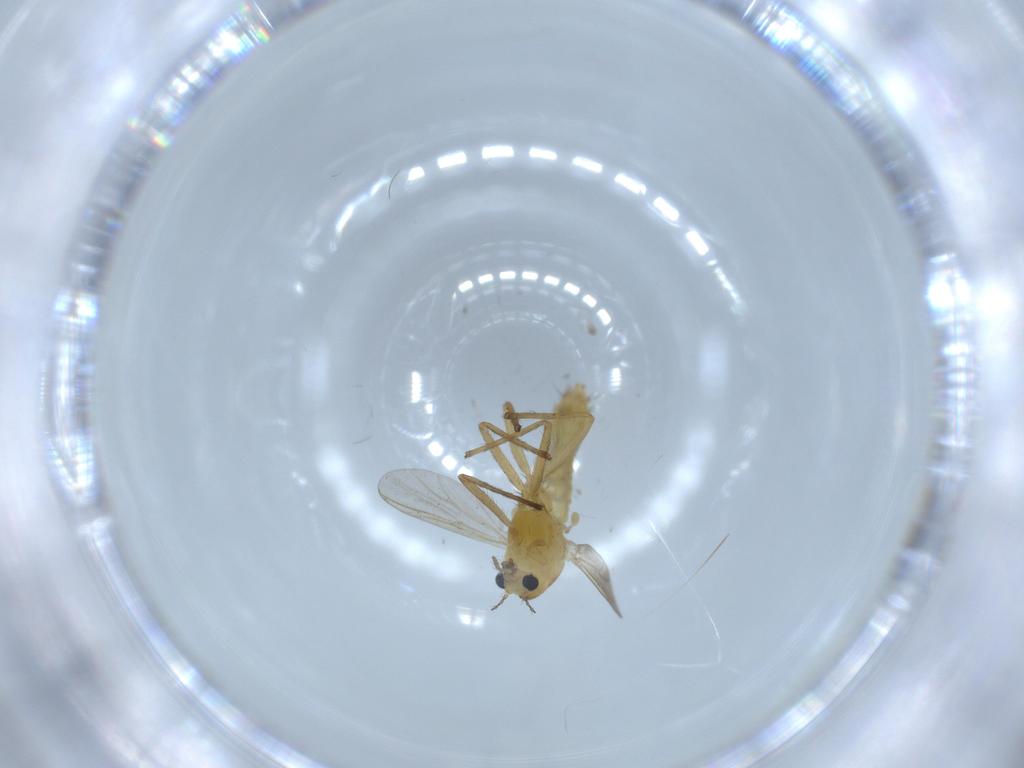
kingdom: Animalia
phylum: Arthropoda
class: Insecta
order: Diptera
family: Chironomidae
